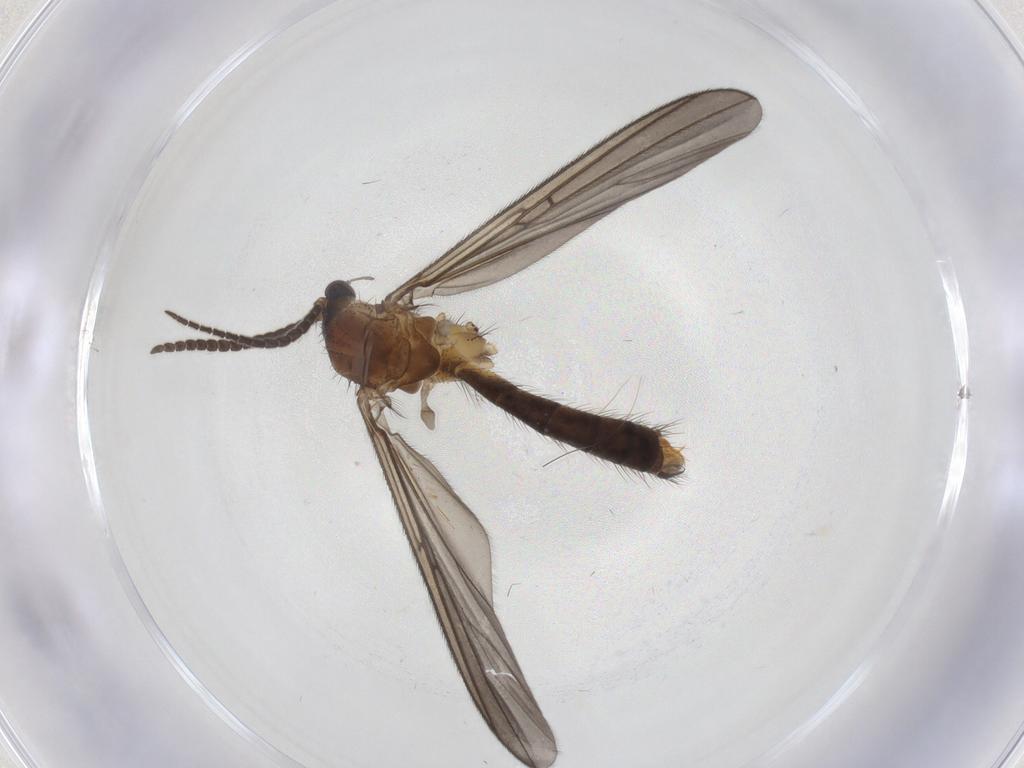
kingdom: Animalia
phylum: Arthropoda
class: Insecta
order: Diptera
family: Mycetophilidae
